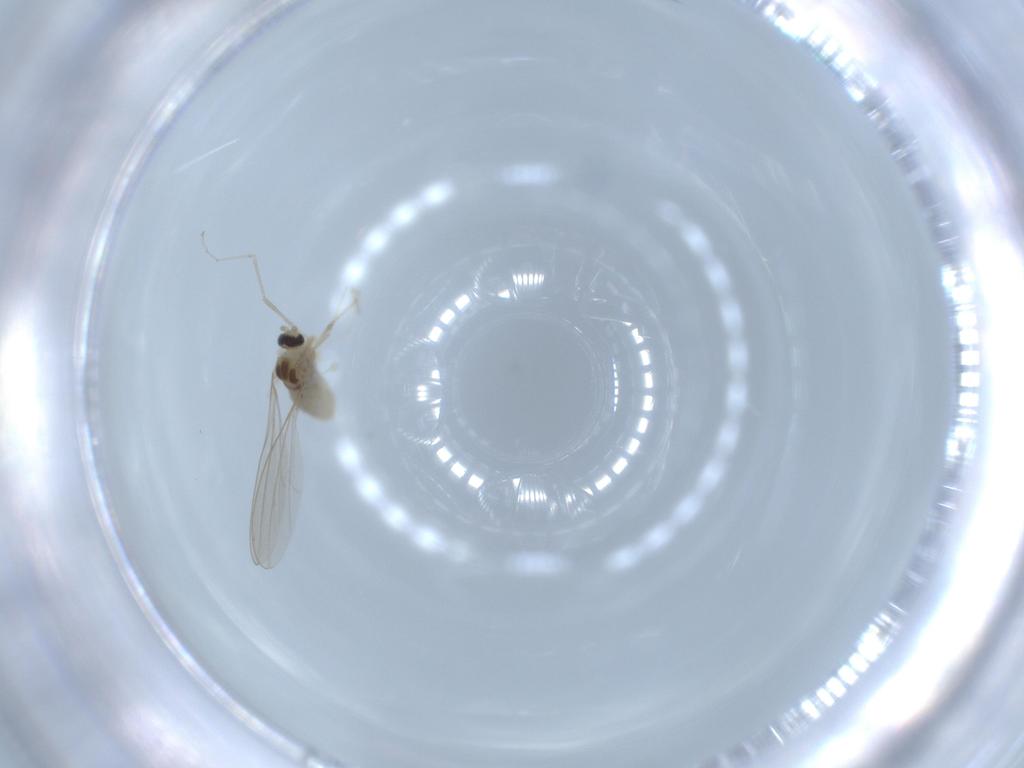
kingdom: Animalia
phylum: Arthropoda
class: Insecta
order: Diptera
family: Cecidomyiidae
